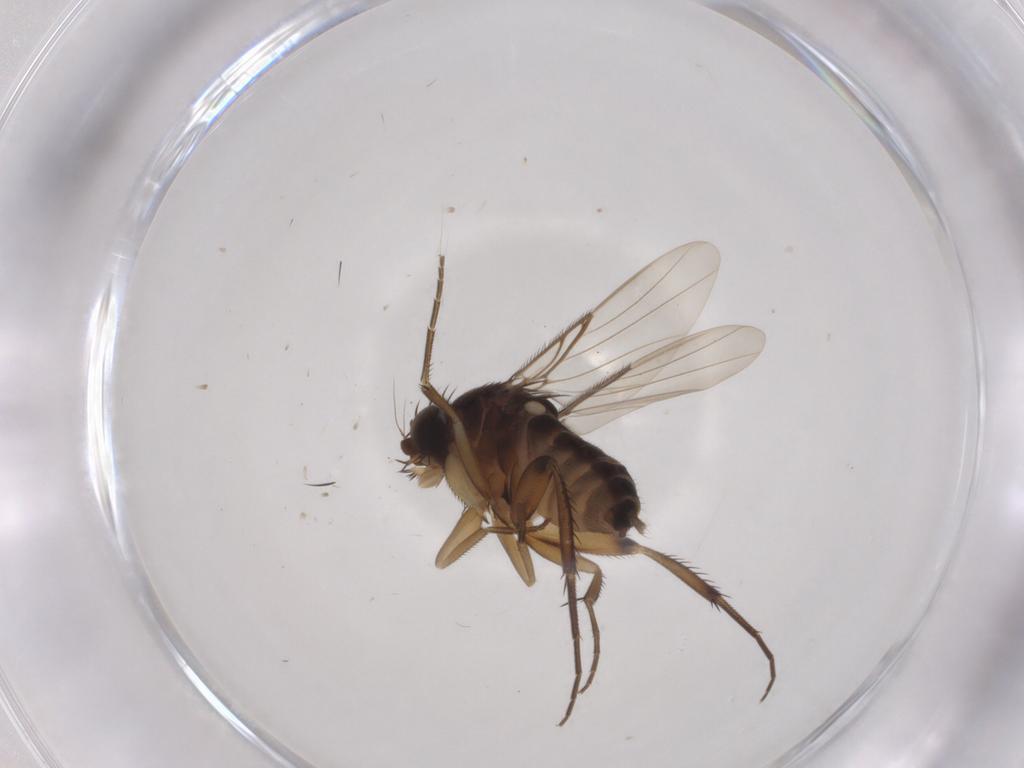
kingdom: Animalia
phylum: Arthropoda
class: Insecta
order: Diptera
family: Phoridae
